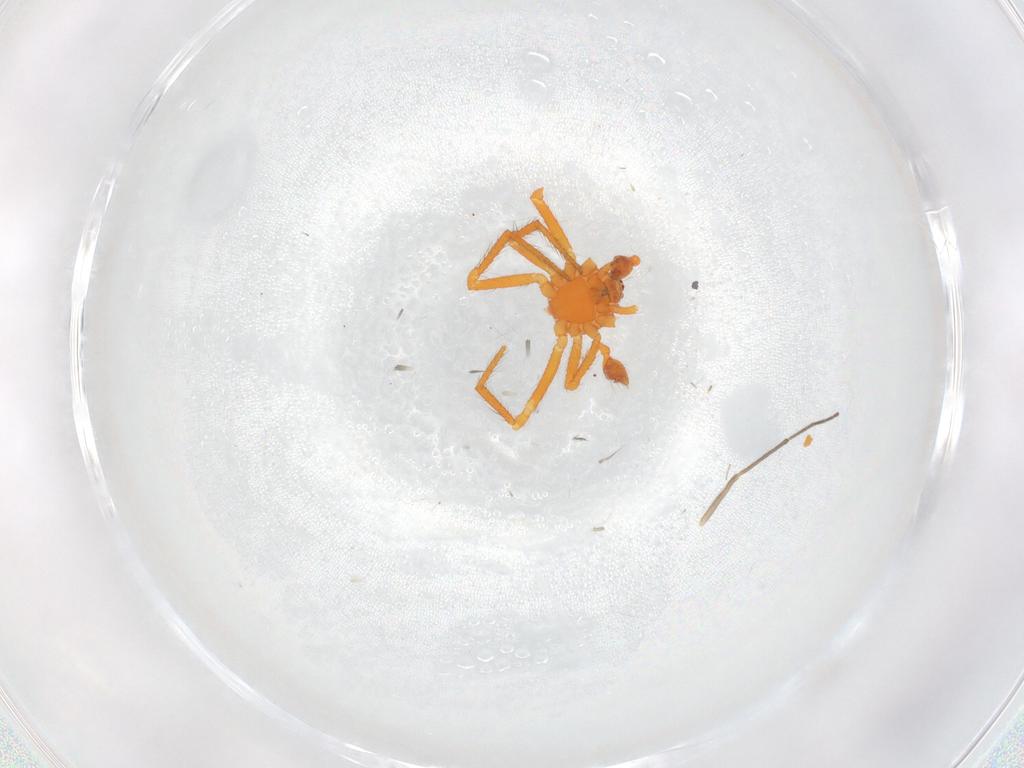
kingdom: Animalia
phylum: Arthropoda
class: Arachnida
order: Araneae
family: Theridiidae
